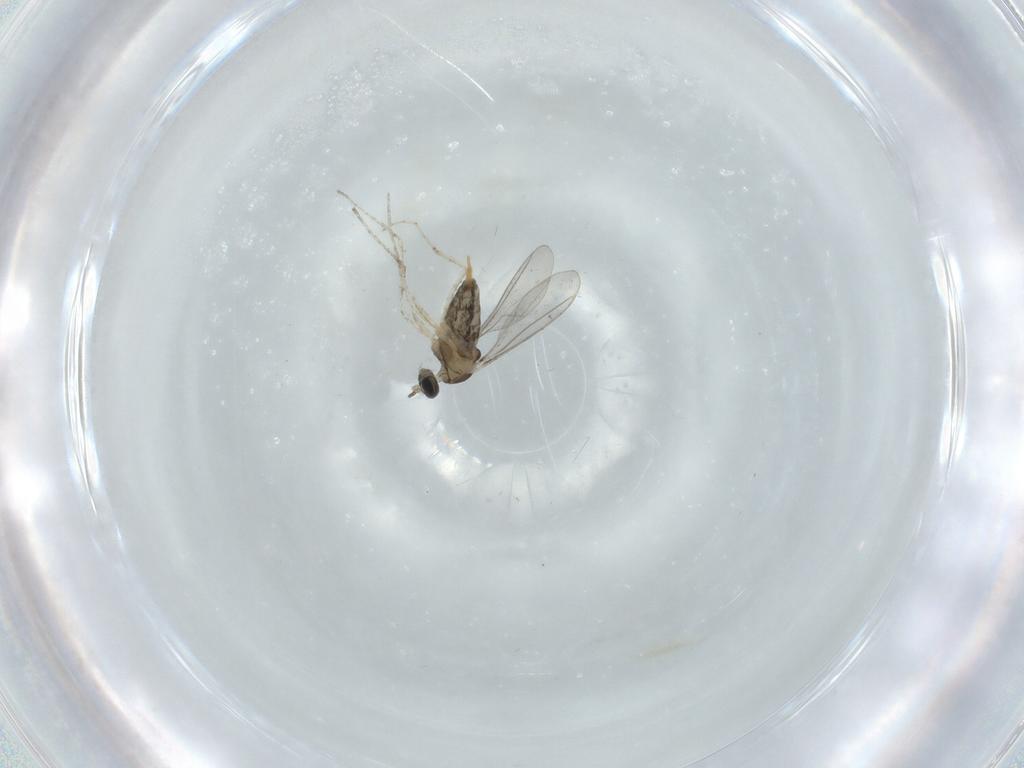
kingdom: Animalia
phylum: Arthropoda
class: Insecta
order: Diptera
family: Cecidomyiidae
